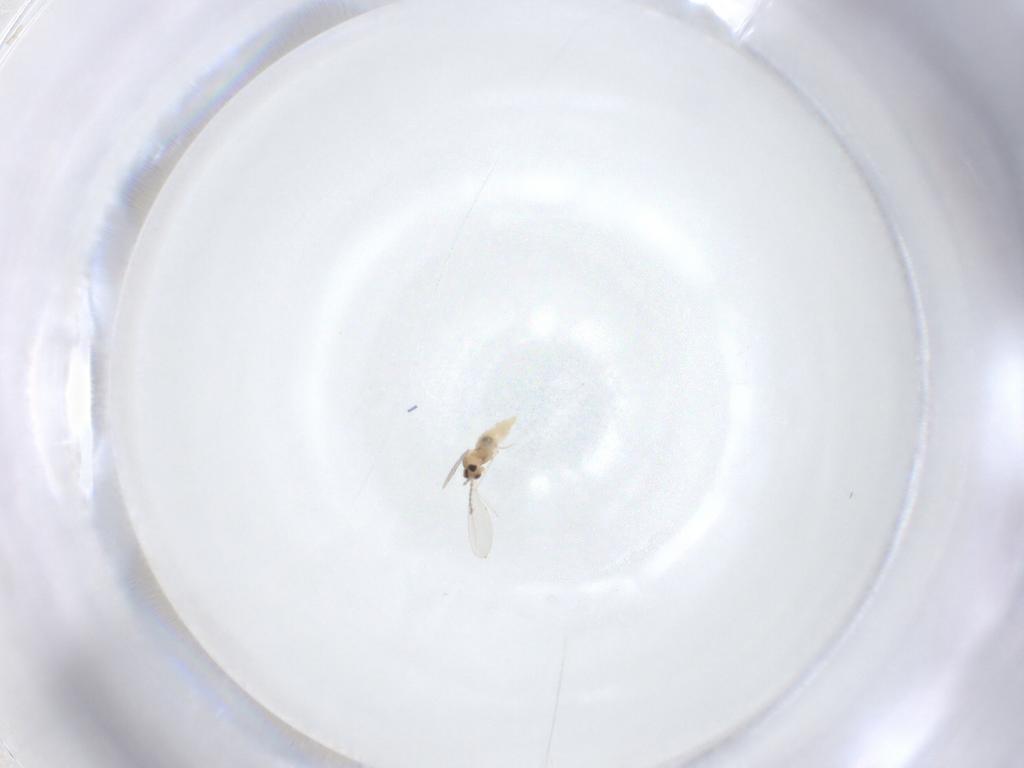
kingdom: Animalia
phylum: Arthropoda
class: Insecta
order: Diptera
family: Cecidomyiidae
